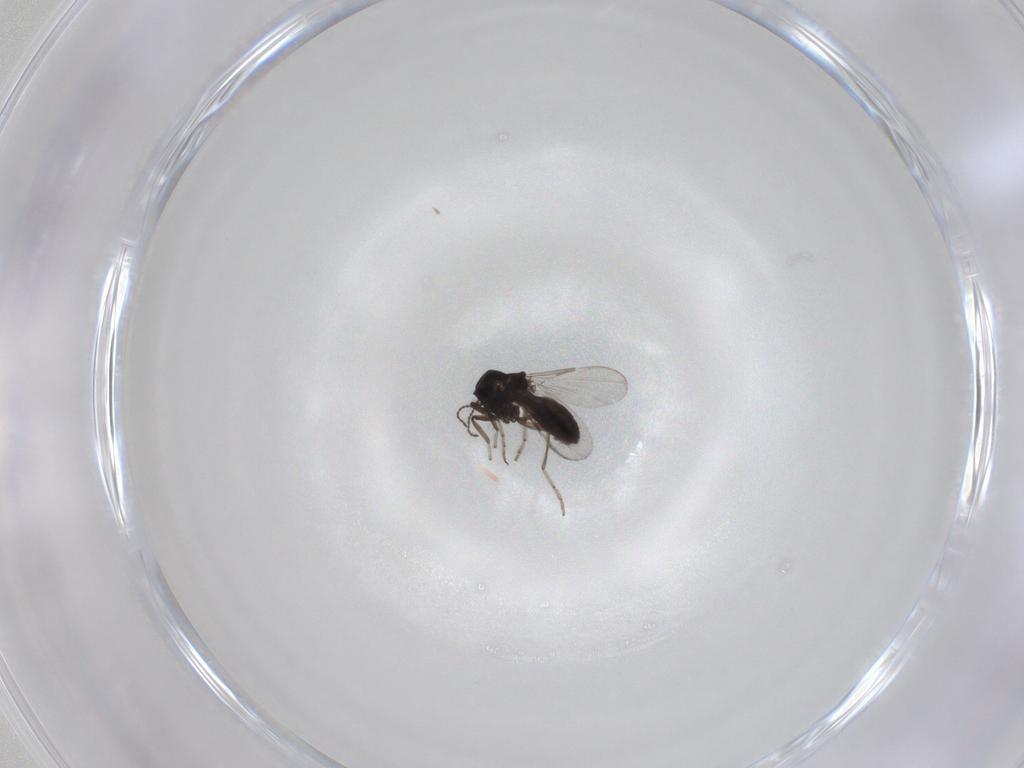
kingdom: Animalia
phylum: Arthropoda
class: Insecta
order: Diptera
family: Ceratopogonidae
